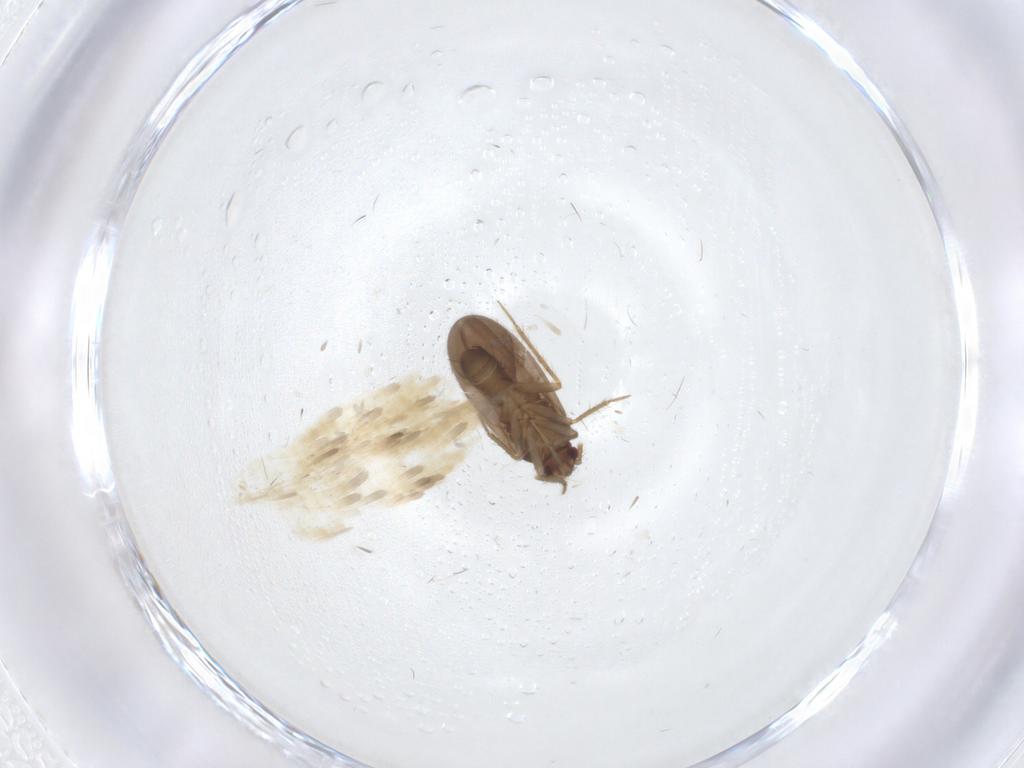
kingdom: Animalia
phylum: Arthropoda
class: Insecta
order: Hemiptera
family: Ceratocombidae
